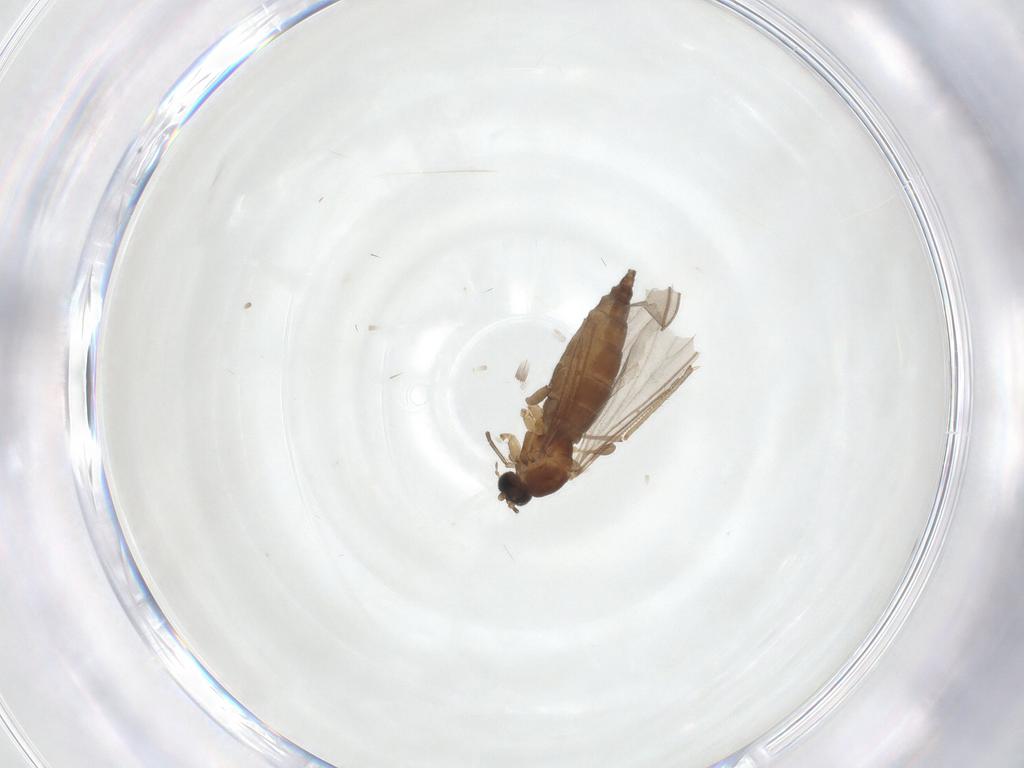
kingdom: Animalia
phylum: Arthropoda
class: Insecta
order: Diptera
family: Sciaridae
